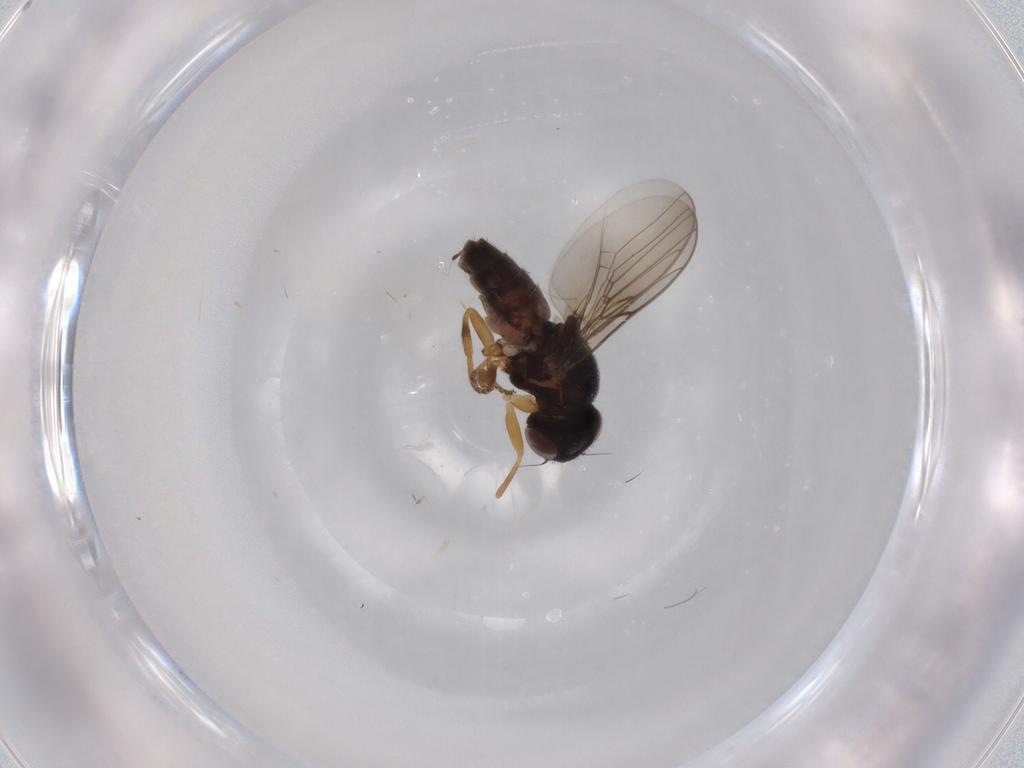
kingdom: Animalia
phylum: Arthropoda
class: Insecta
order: Diptera
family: Chloropidae
